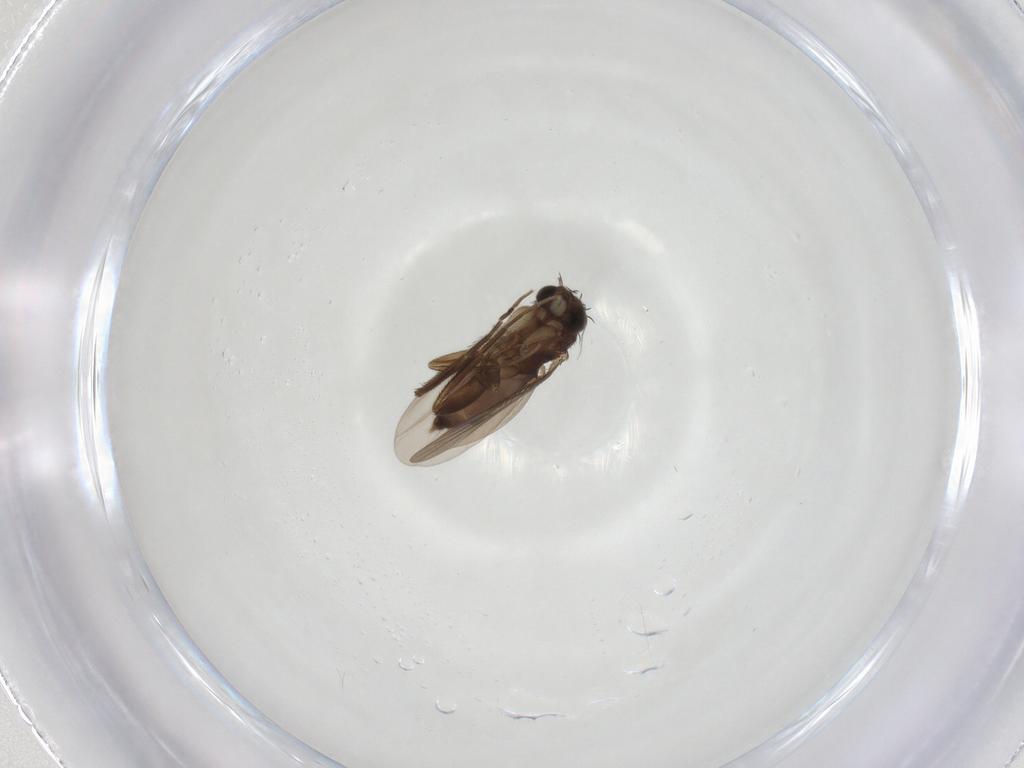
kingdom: Animalia
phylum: Arthropoda
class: Insecta
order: Diptera
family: Phoridae
